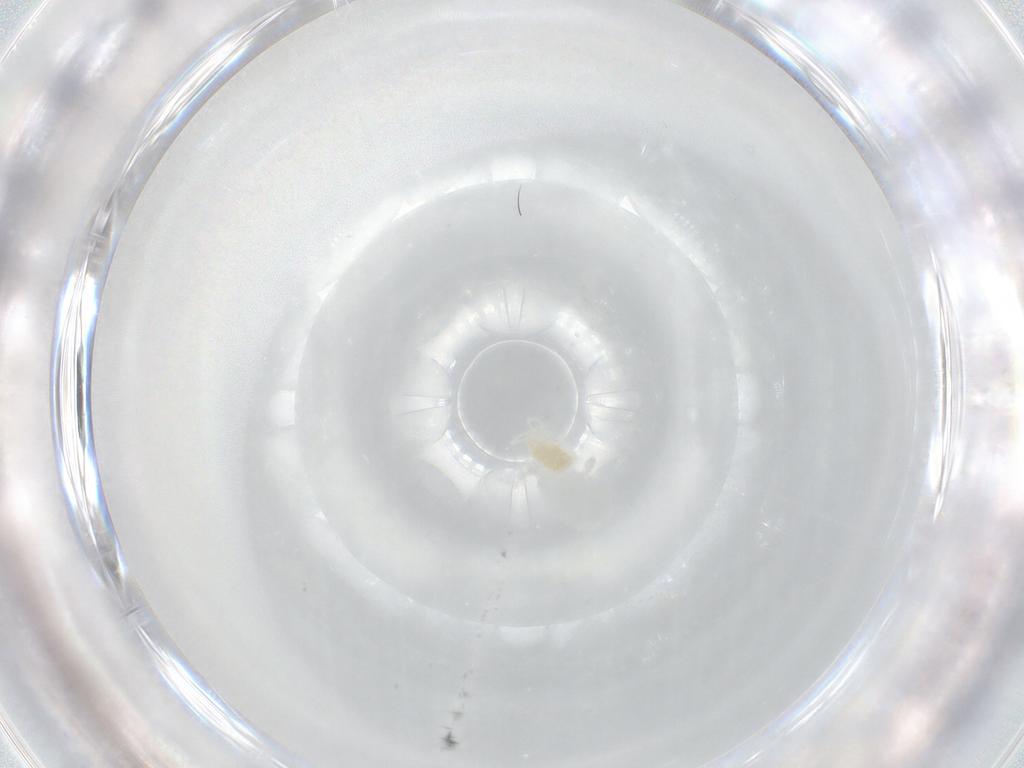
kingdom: Animalia
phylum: Arthropoda
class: Arachnida
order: Trombidiformes
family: Eupodidae
